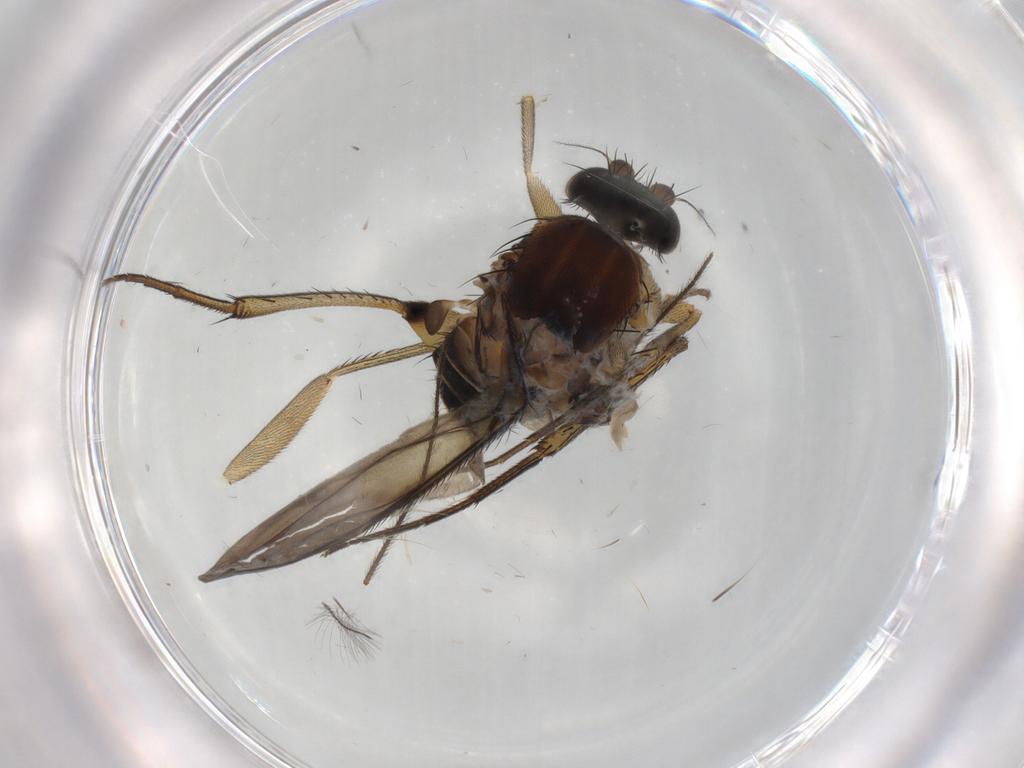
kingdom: Animalia
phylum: Arthropoda
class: Insecta
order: Diptera
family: Phoridae
